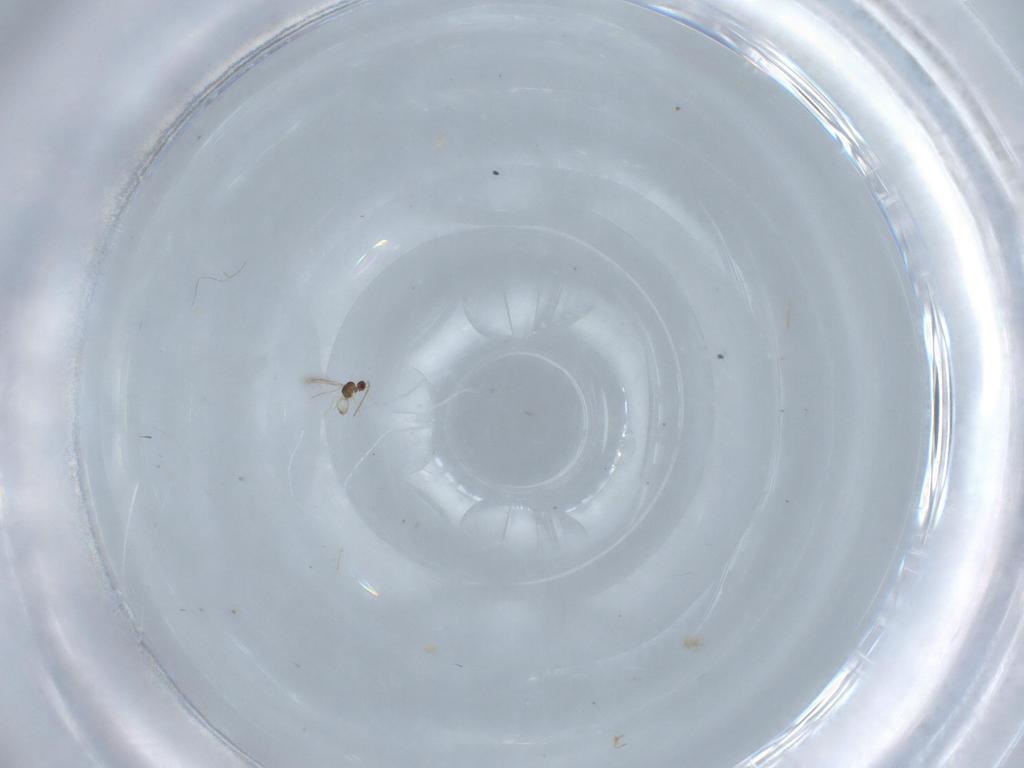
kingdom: Animalia
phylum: Arthropoda
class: Insecta
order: Hymenoptera
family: Mymaridae
